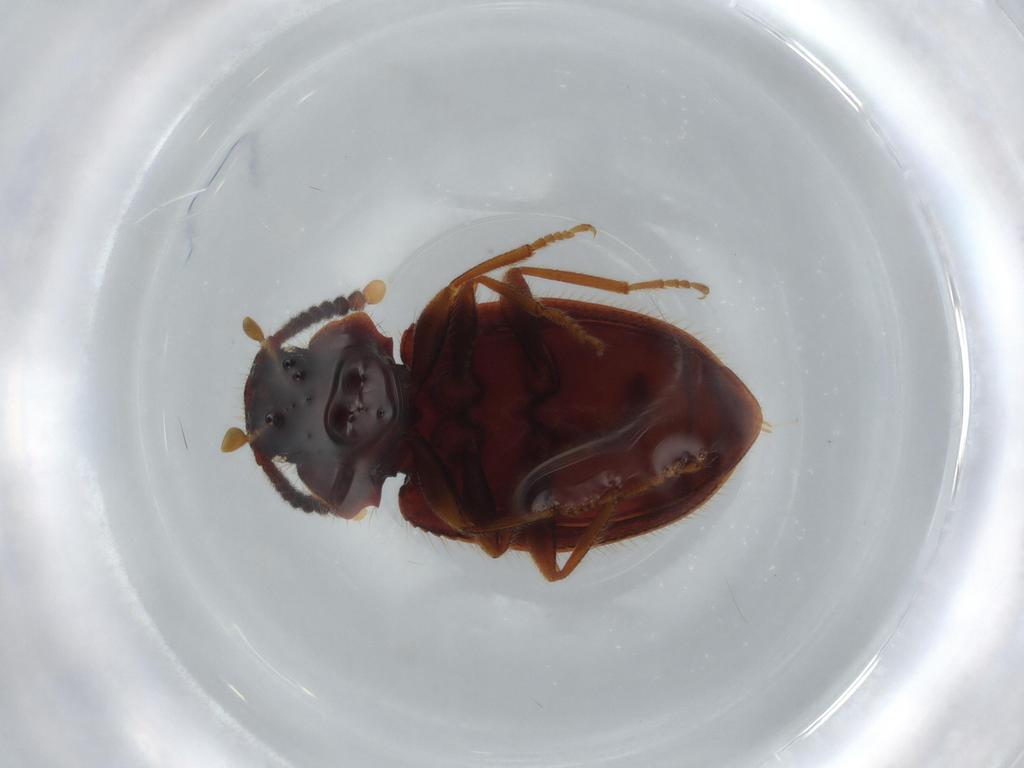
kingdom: Animalia
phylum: Arthropoda
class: Insecta
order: Coleoptera
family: Tenebrionidae
